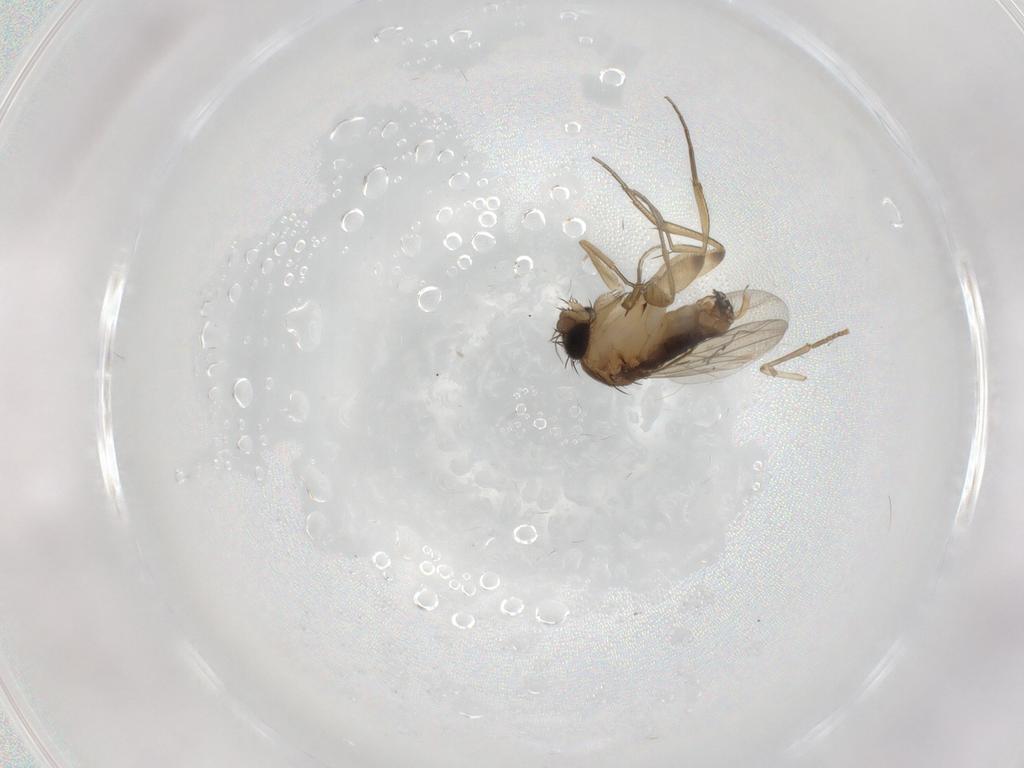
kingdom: Animalia
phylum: Arthropoda
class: Insecta
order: Diptera
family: Phoridae
